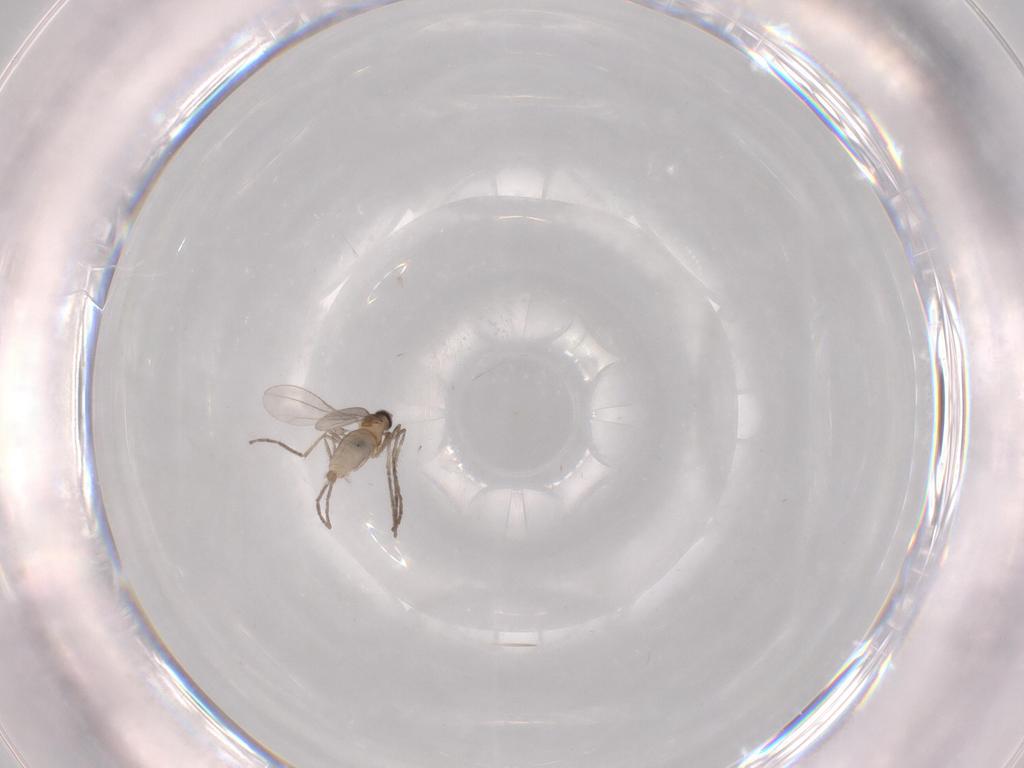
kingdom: Animalia
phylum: Arthropoda
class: Insecta
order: Diptera
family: Cecidomyiidae
